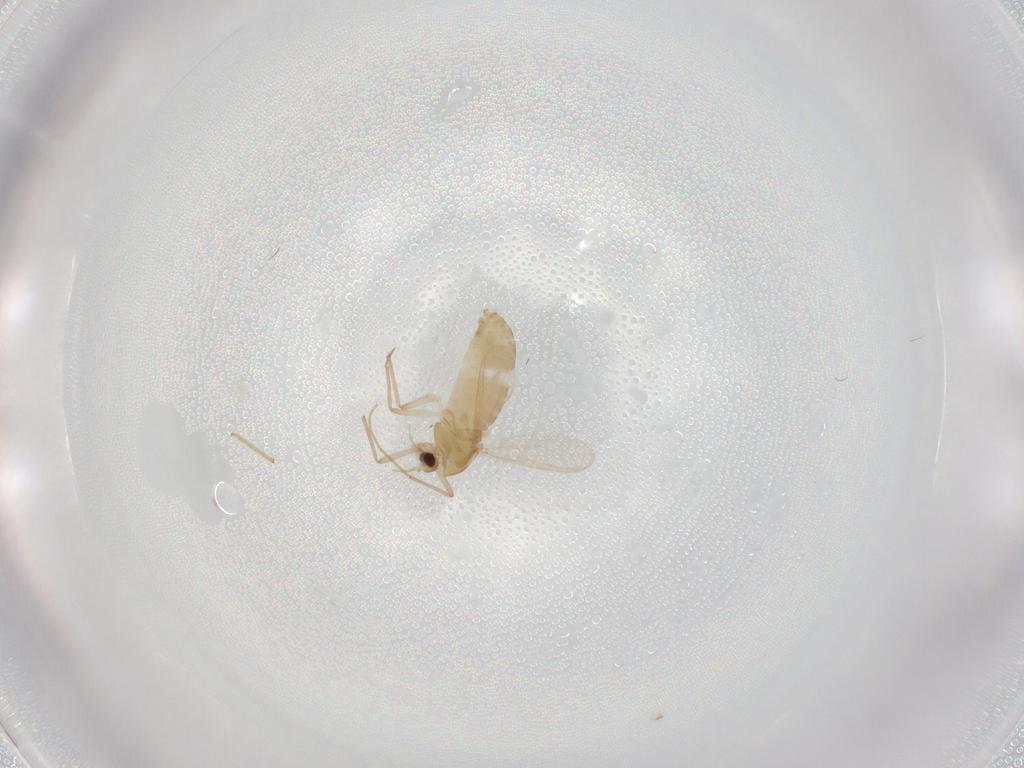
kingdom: Animalia
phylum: Arthropoda
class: Insecta
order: Diptera
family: Chironomidae
